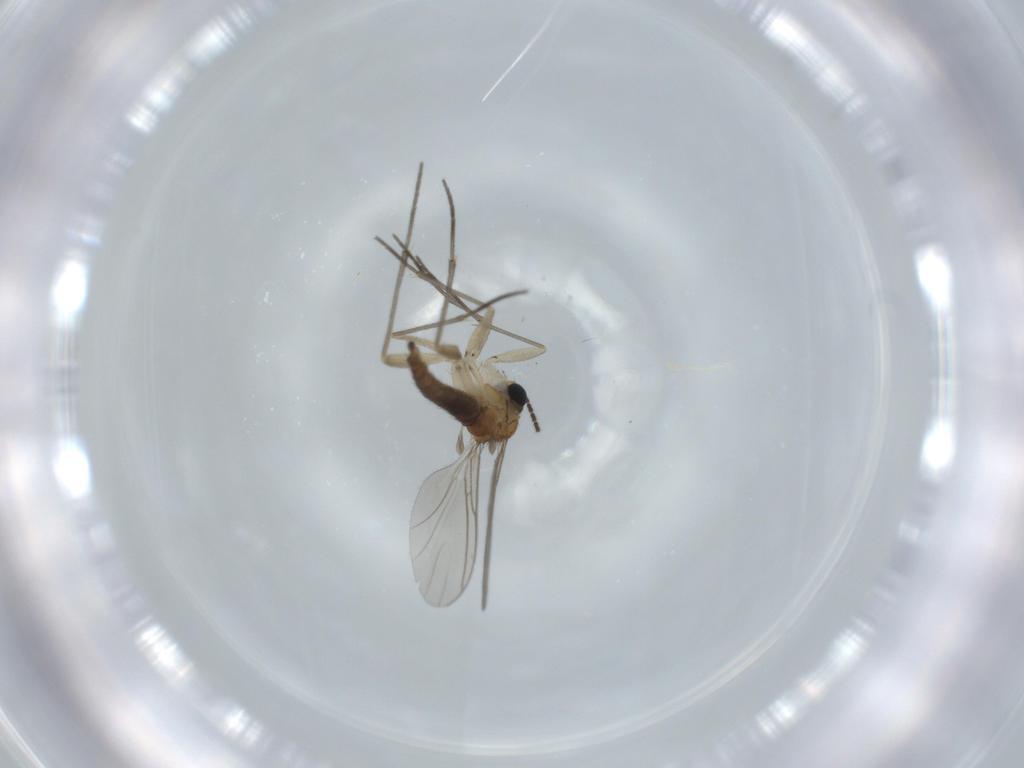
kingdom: Animalia
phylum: Arthropoda
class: Insecta
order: Diptera
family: Sciaridae
